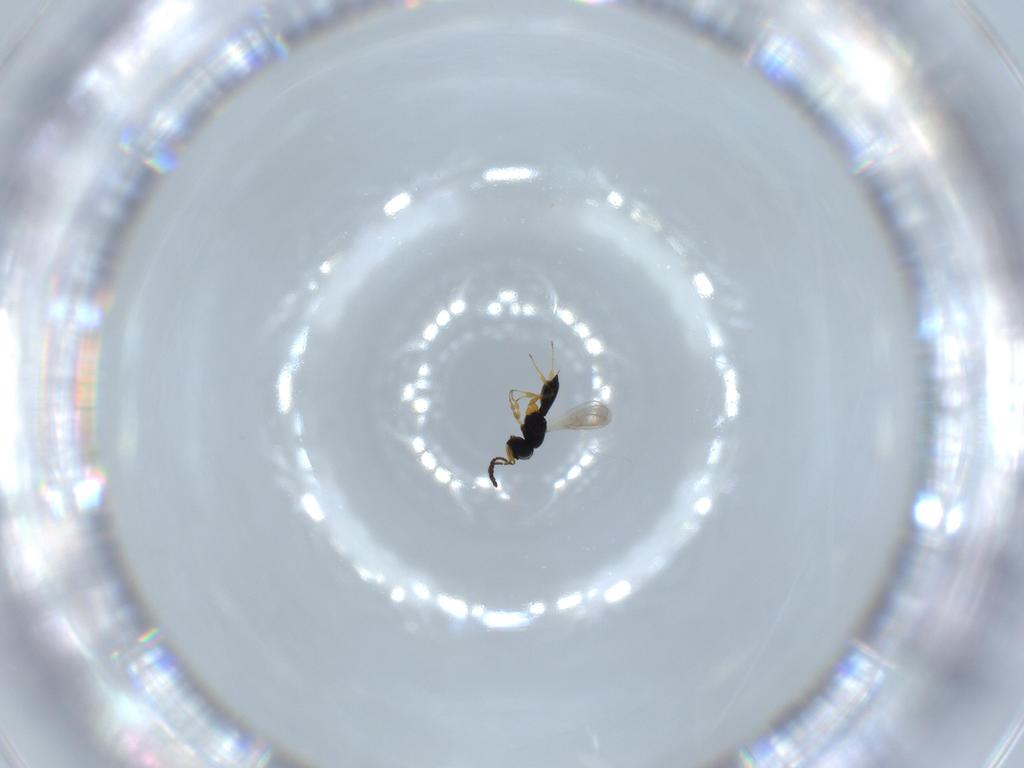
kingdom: Animalia
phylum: Arthropoda
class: Insecta
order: Hymenoptera
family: Scelionidae
